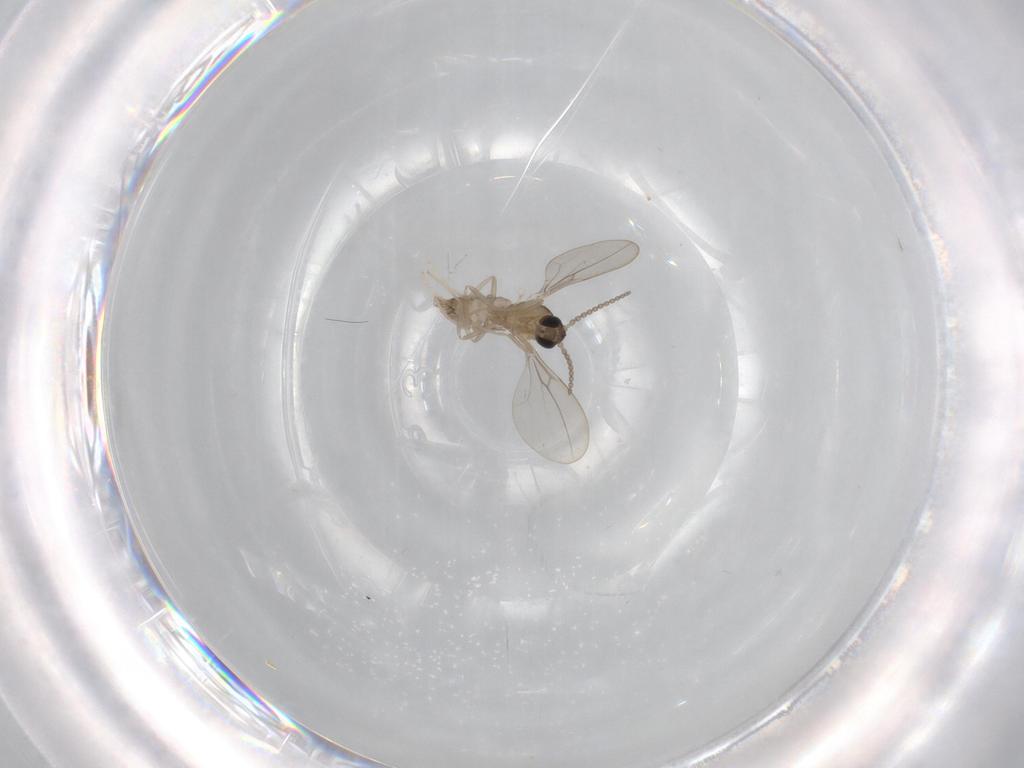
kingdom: Animalia
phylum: Arthropoda
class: Insecta
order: Diptera
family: Cecidomyiidae
